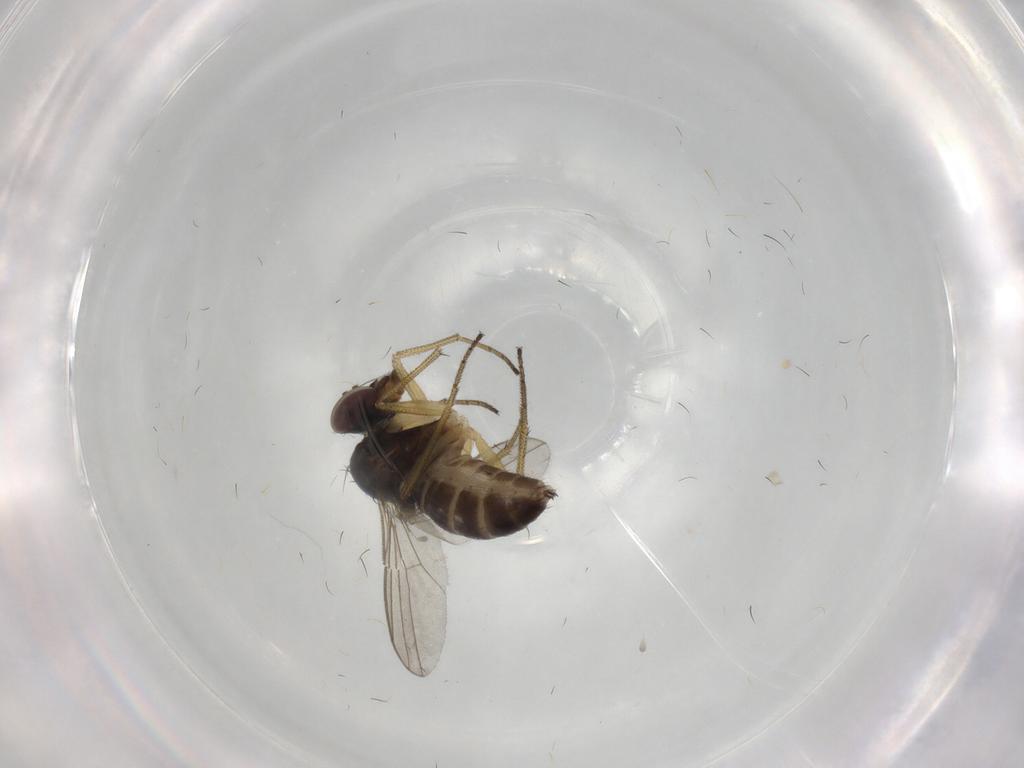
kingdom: Animalia
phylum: Arthropoda
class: Insecta
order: Diptera
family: Dolichopodidae
